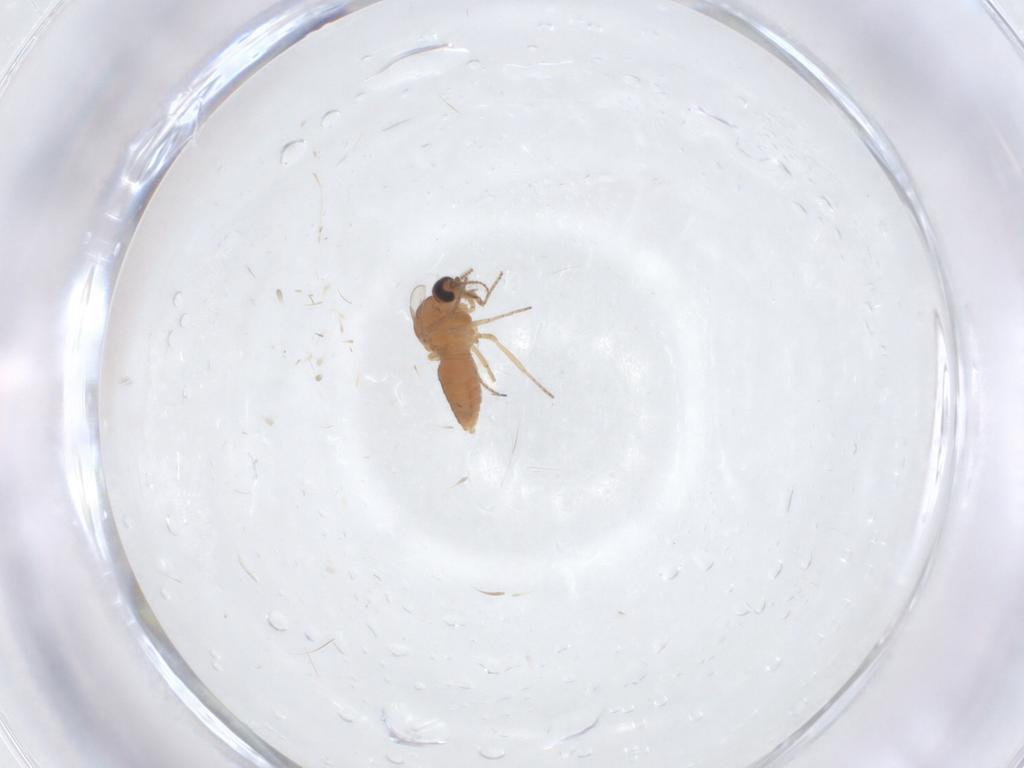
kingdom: Animalia
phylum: Arthropoda
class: Insecta
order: Diptera
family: Ceratopogonidae
